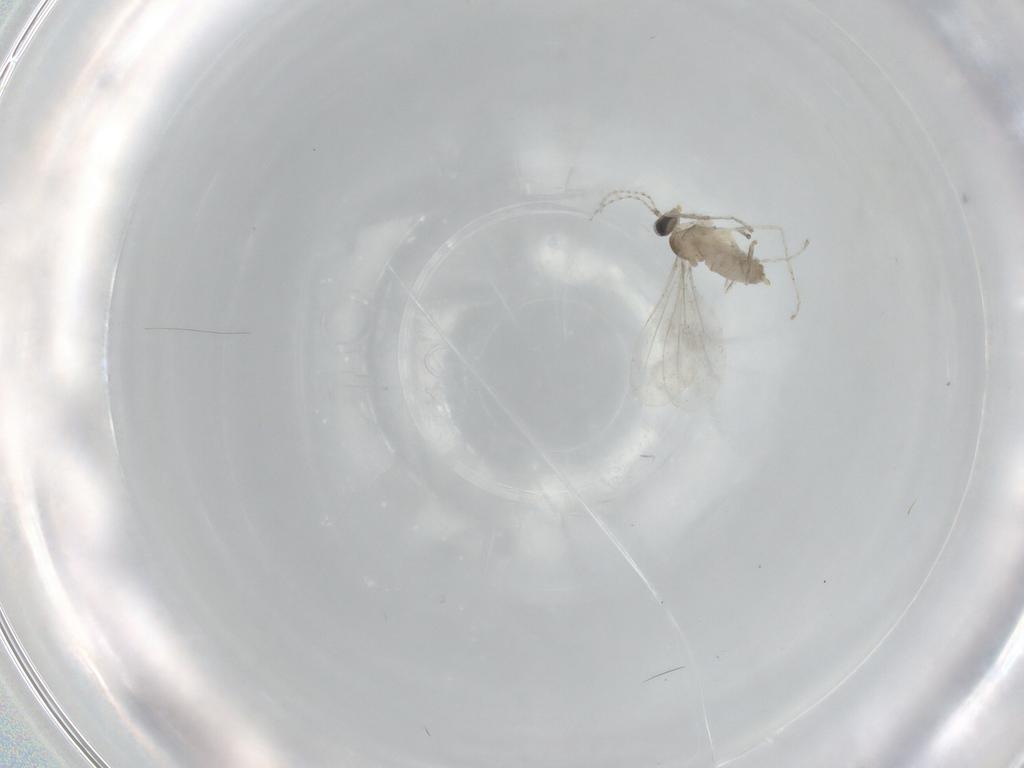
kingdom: Animalia
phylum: Arthropoda
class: Insecta
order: Diptera
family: Cecidomyiidae
